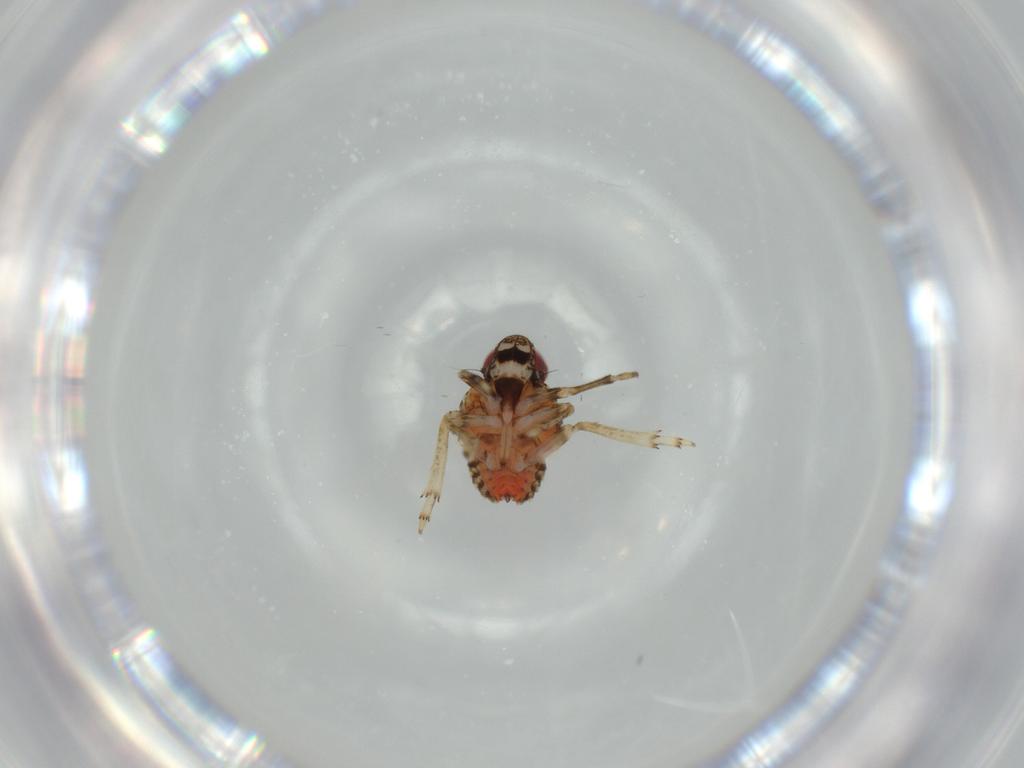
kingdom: Animalia
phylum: Arthropoda
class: Insecta
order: Hemiptera
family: Issidae
